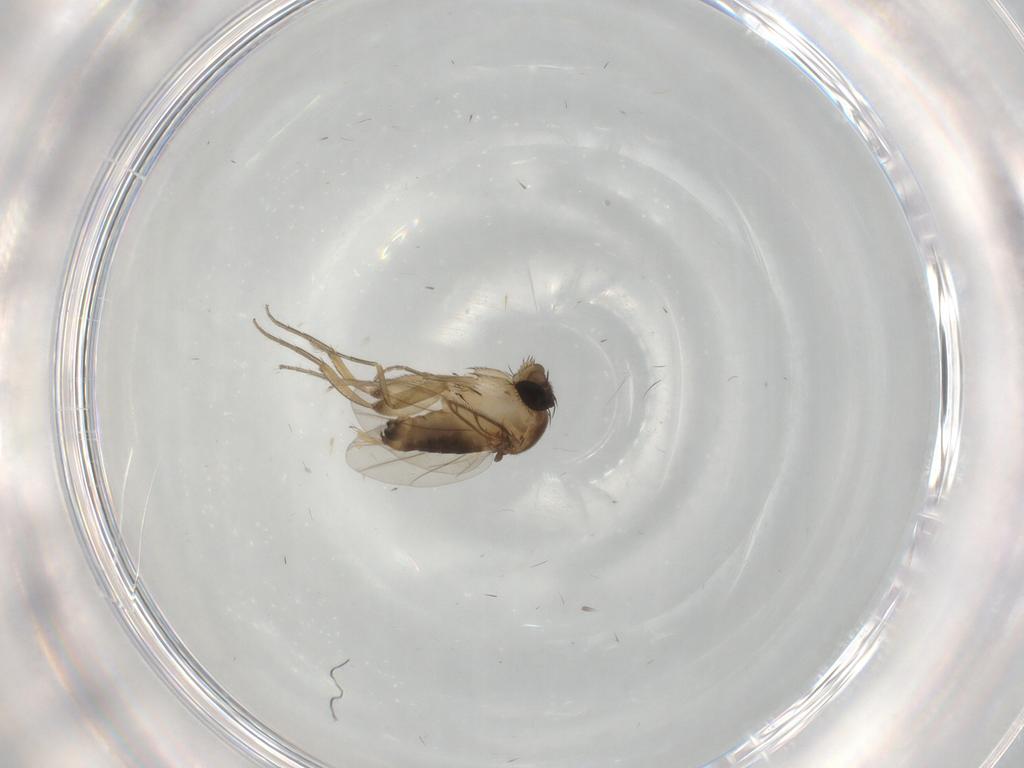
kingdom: Animalia
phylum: Arthropoda
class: Insecta
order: Diptera
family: Phoridae
